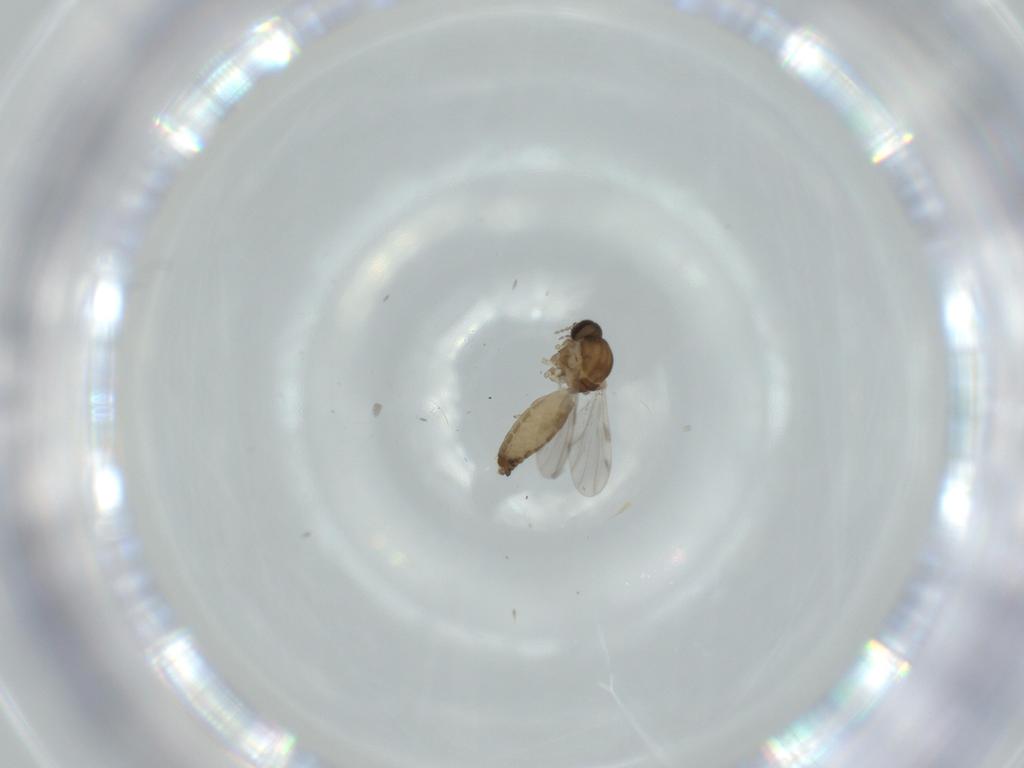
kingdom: Animalia
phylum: Arthropoda
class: Insecta
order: Diptera
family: Ceratopogonidae
